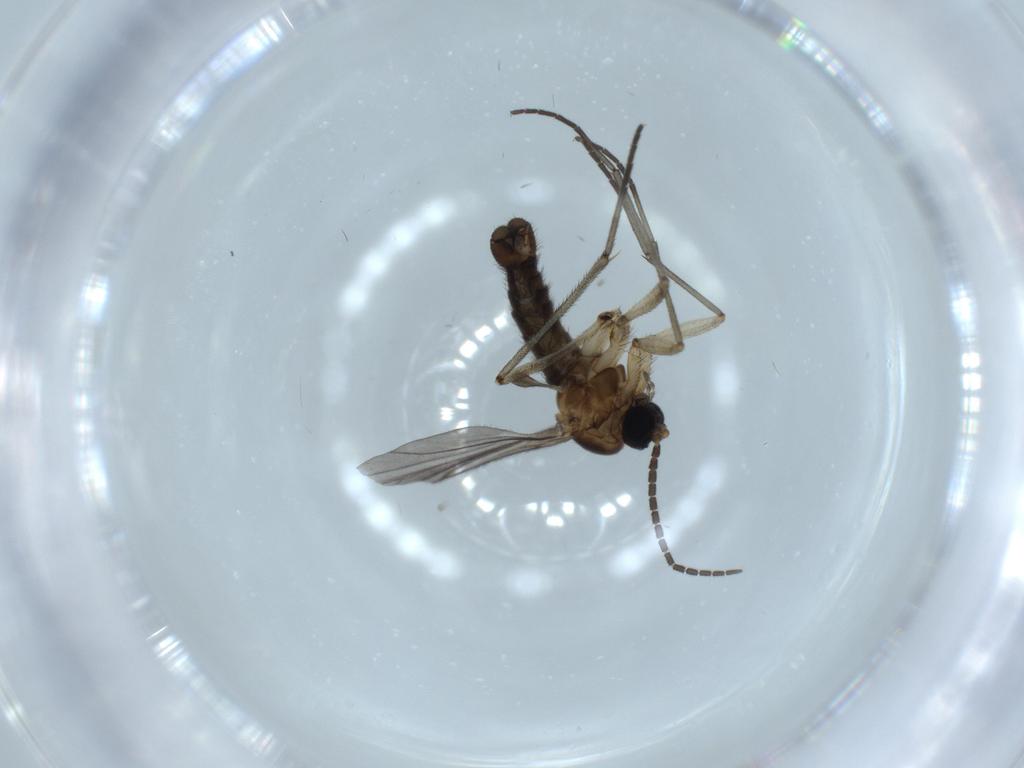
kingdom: Animalia
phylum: Arthropoda
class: Insecta
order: Diptera
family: Sciaridae
